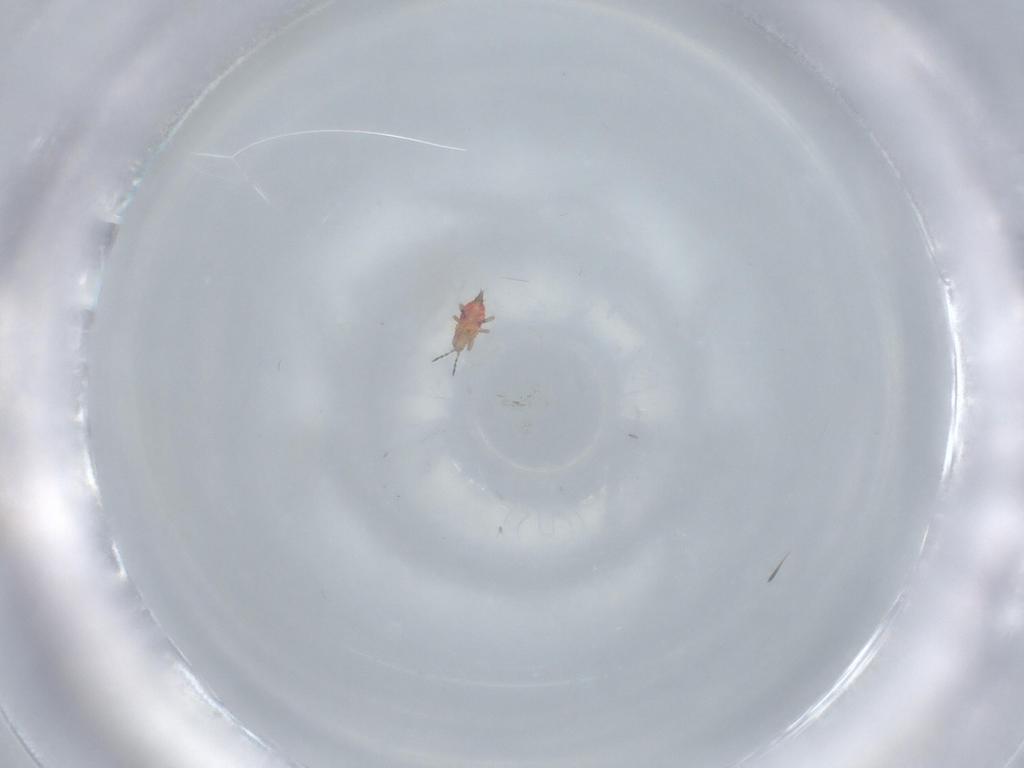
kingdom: Animalia
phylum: Arthropoda
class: Insecta
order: Thysanoptera
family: Phlaeothripidae
